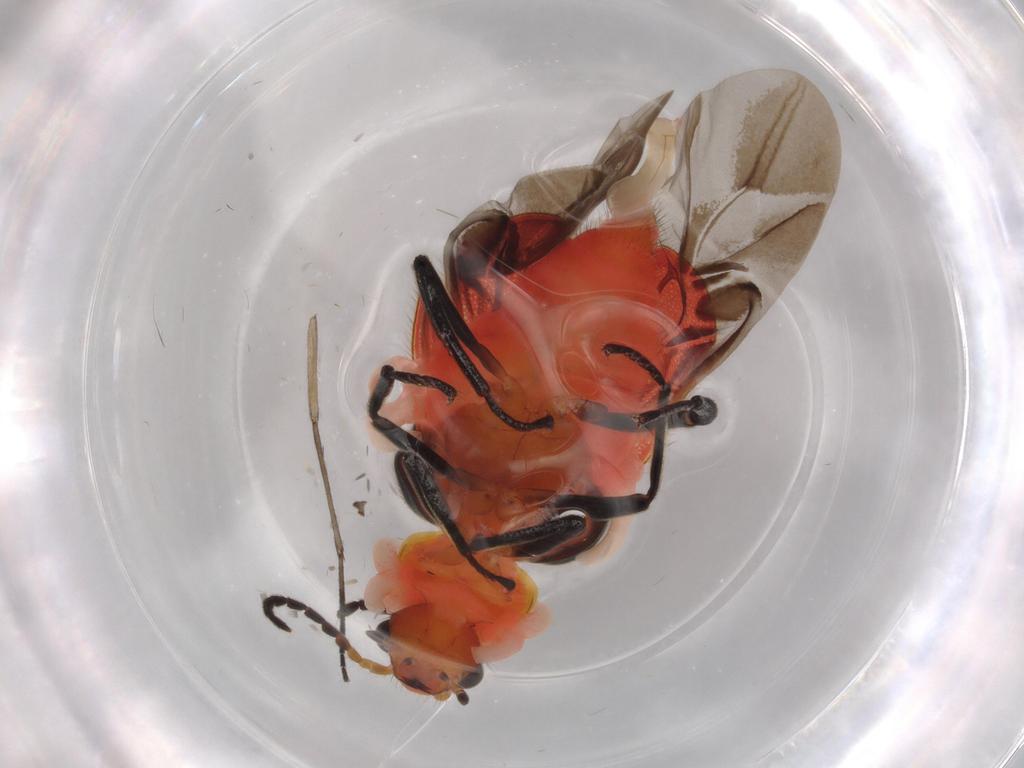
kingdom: Animalia
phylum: Arthropoda
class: Insecta
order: Coleoptera
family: Melyridae
